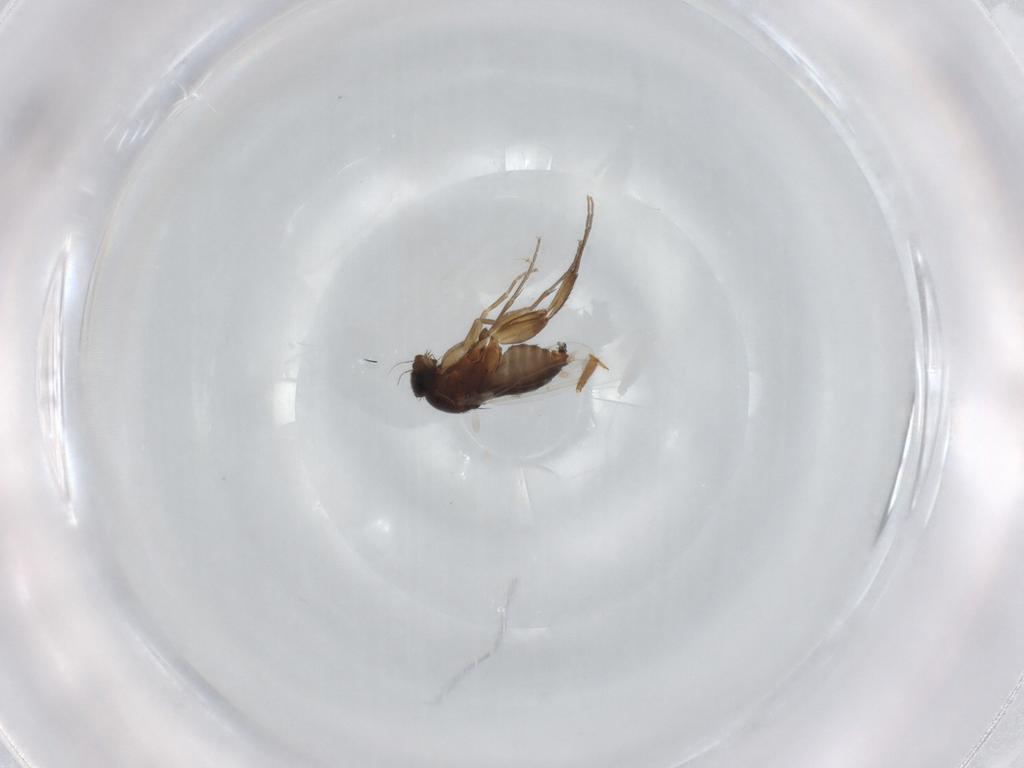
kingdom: Animalia
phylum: Arthropoda
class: Insecta
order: Diptera
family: Phoridae
